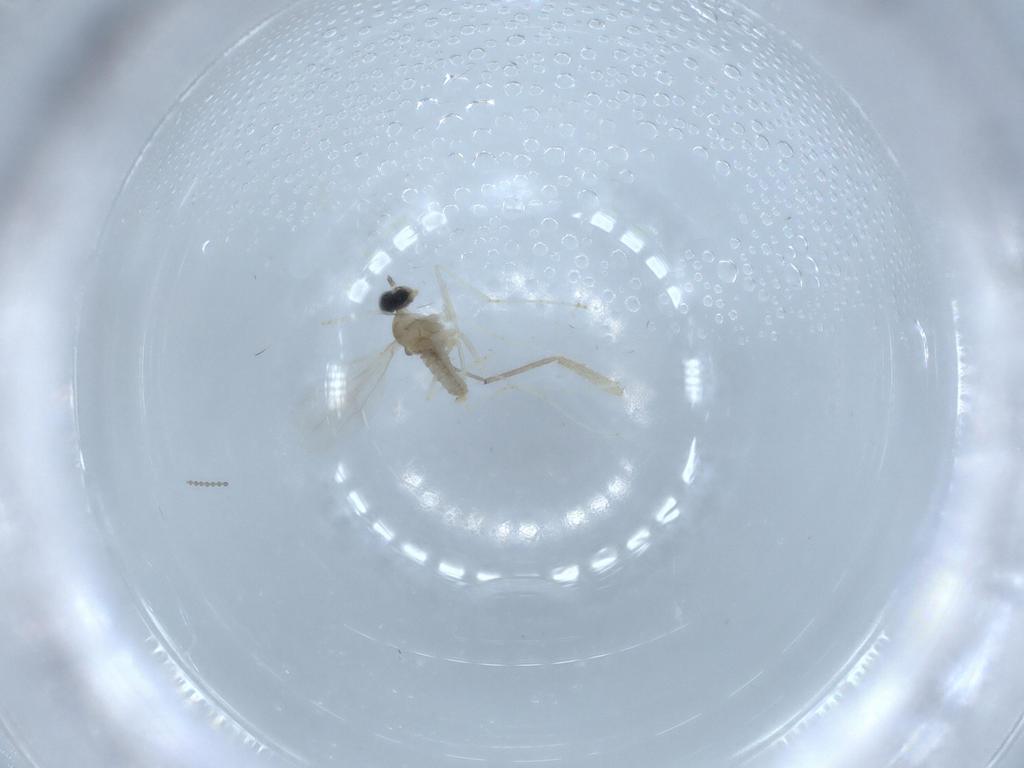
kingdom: Animalia
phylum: Arthropoda
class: Insecta
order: Diptera
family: Cecidomyiidae
